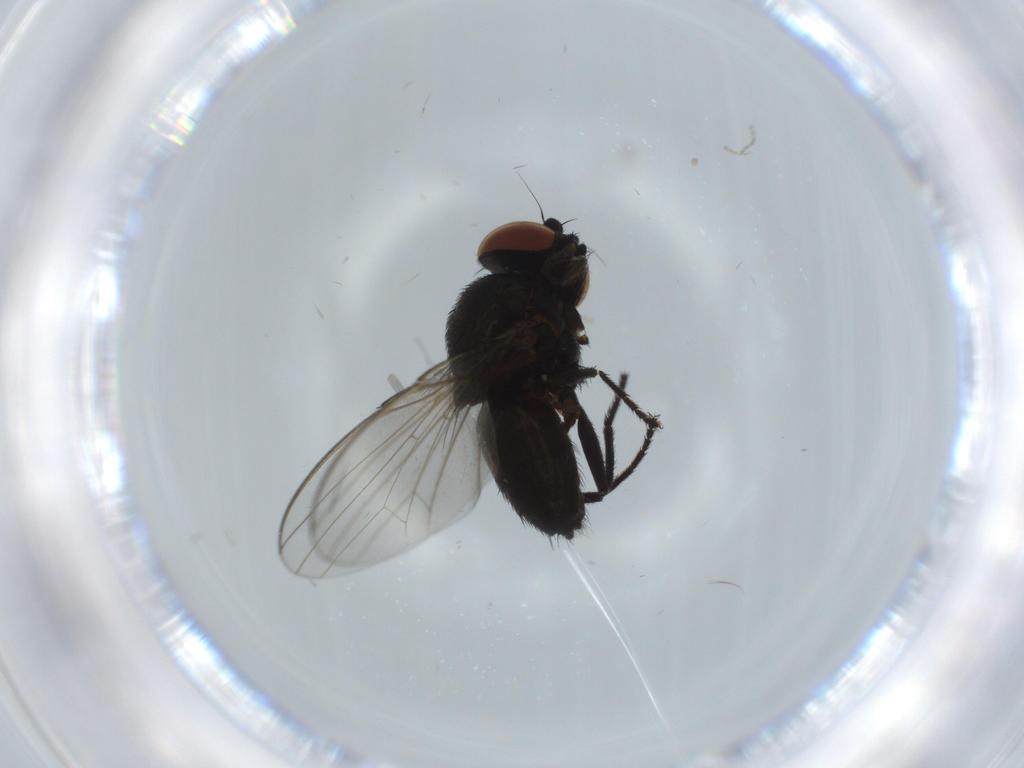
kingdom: Animalia
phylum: Arthropoda
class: Insecta
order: Diptera
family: Milichiidae
